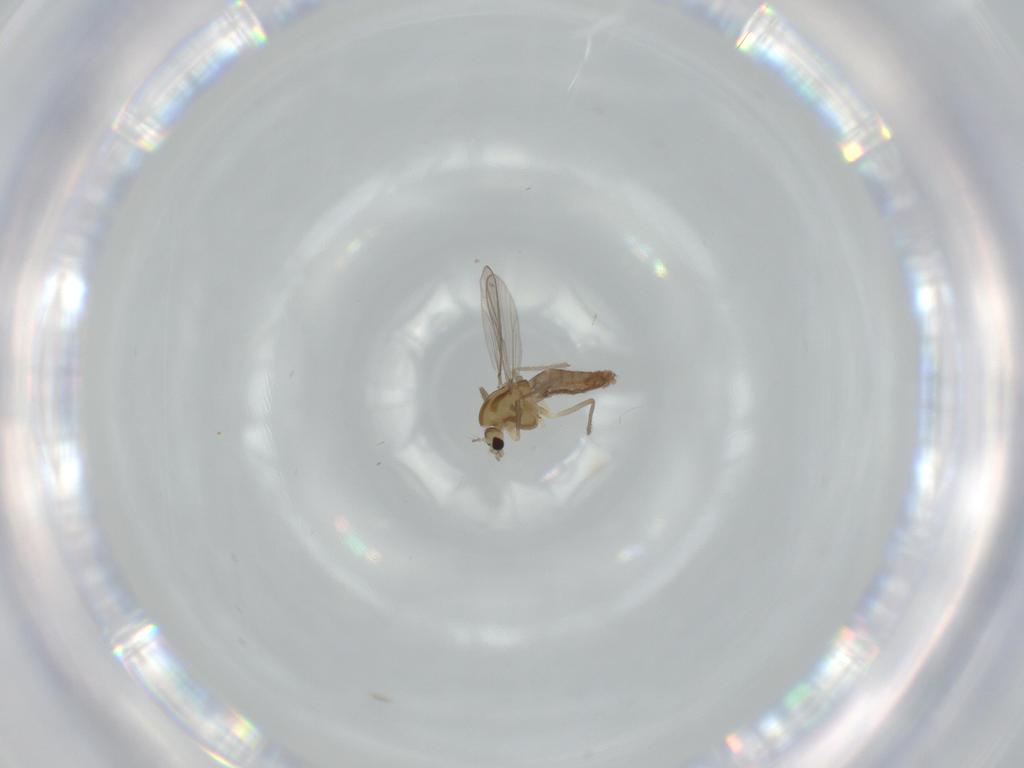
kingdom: Animalia
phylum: Arthropoda
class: Insecta
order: Diptera
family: Chironomidae
